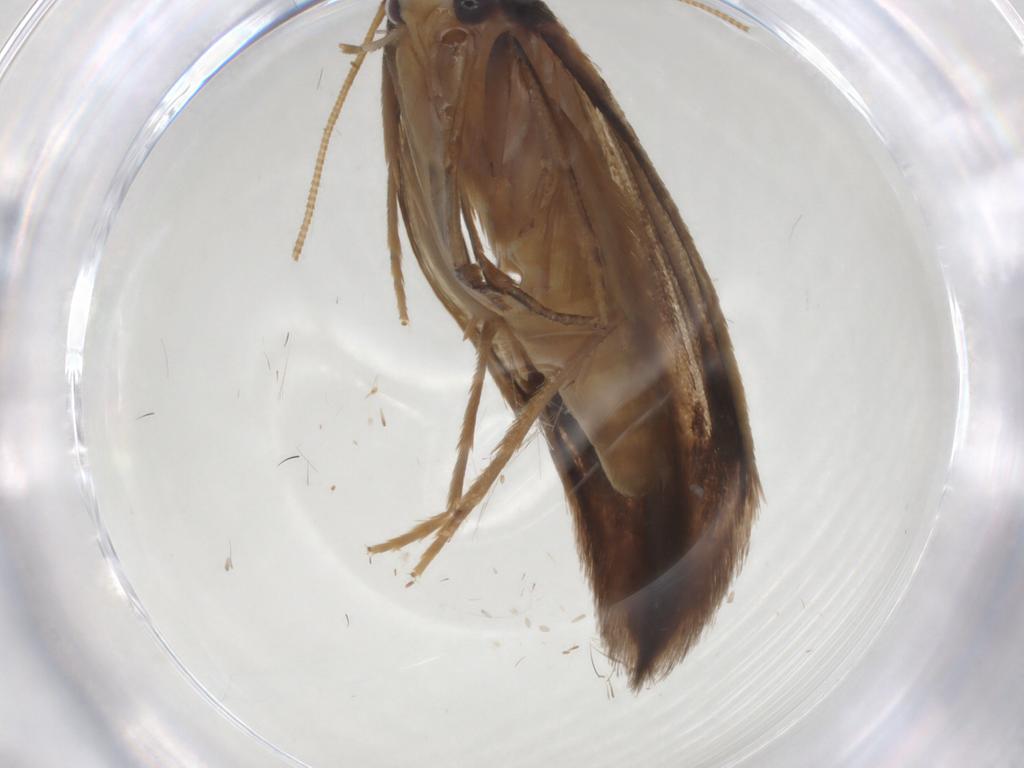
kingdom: Animalia
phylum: Arthropoda
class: Insecta
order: Lepidoptera
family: Tineidae
